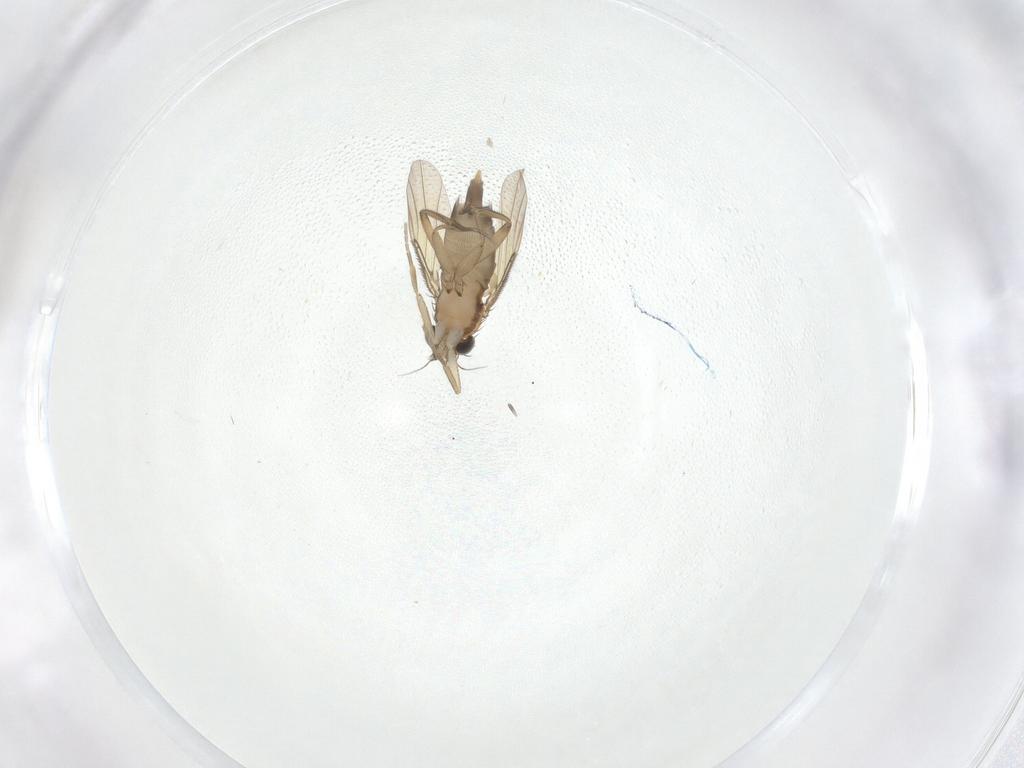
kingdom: Animalia
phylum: Arthropoda
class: Insecta
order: Diptera
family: Phoridae
